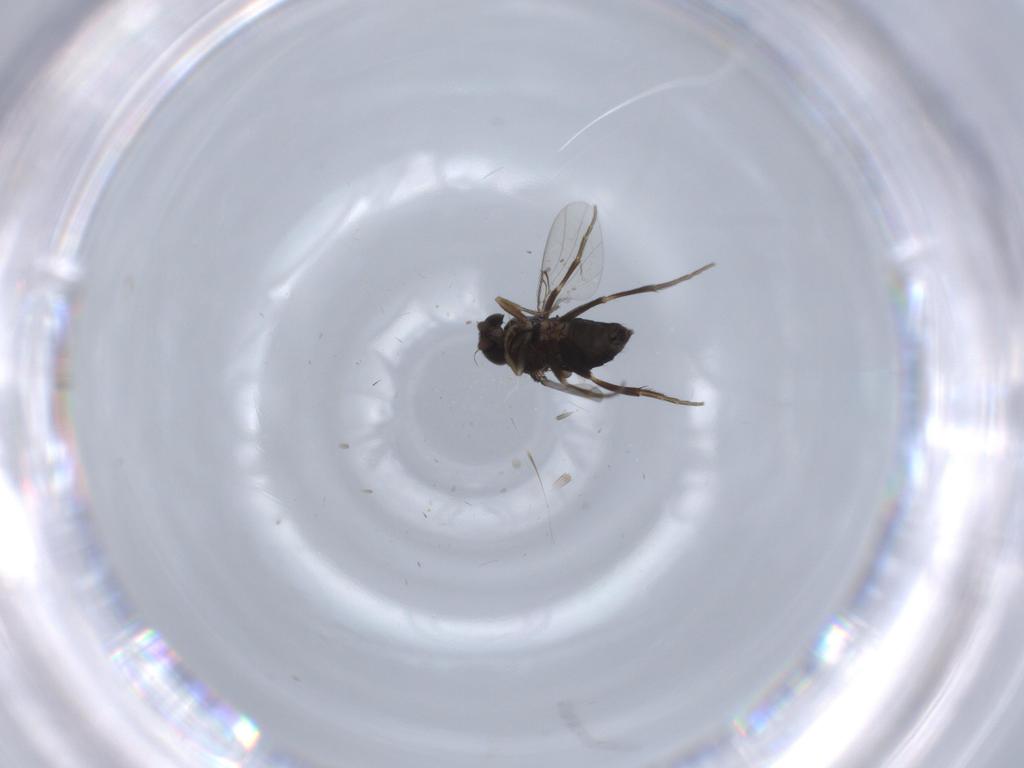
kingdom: Animalia
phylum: Arthropoda
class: Insecta
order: Diptera
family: Phoridae
